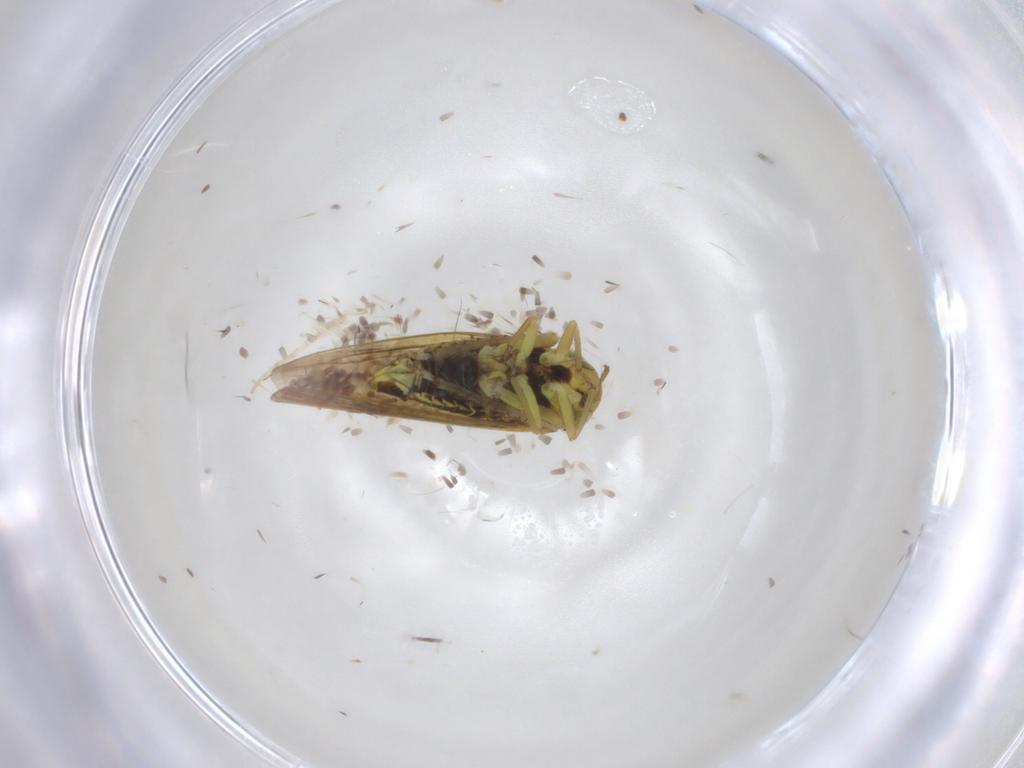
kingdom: Animalia
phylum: Arthropoda
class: Insecta
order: Hemiptera
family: Cicadellidae
